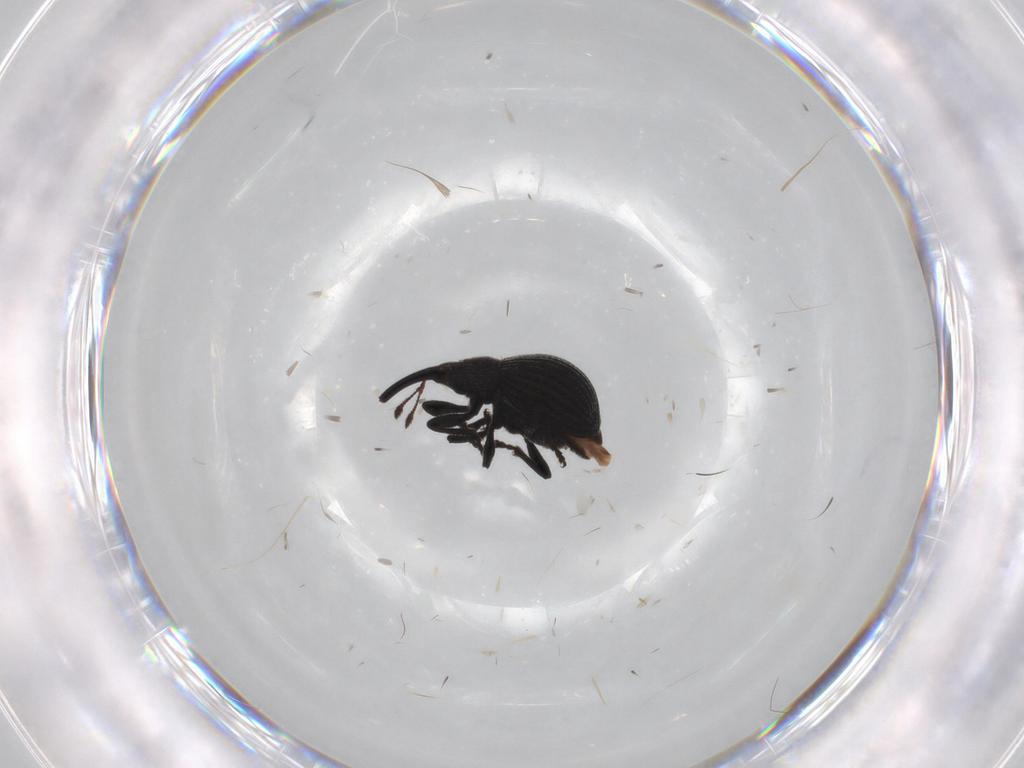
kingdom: Animalia
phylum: Arthropoda
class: Insecta
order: Coleoptera
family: Brentidae
